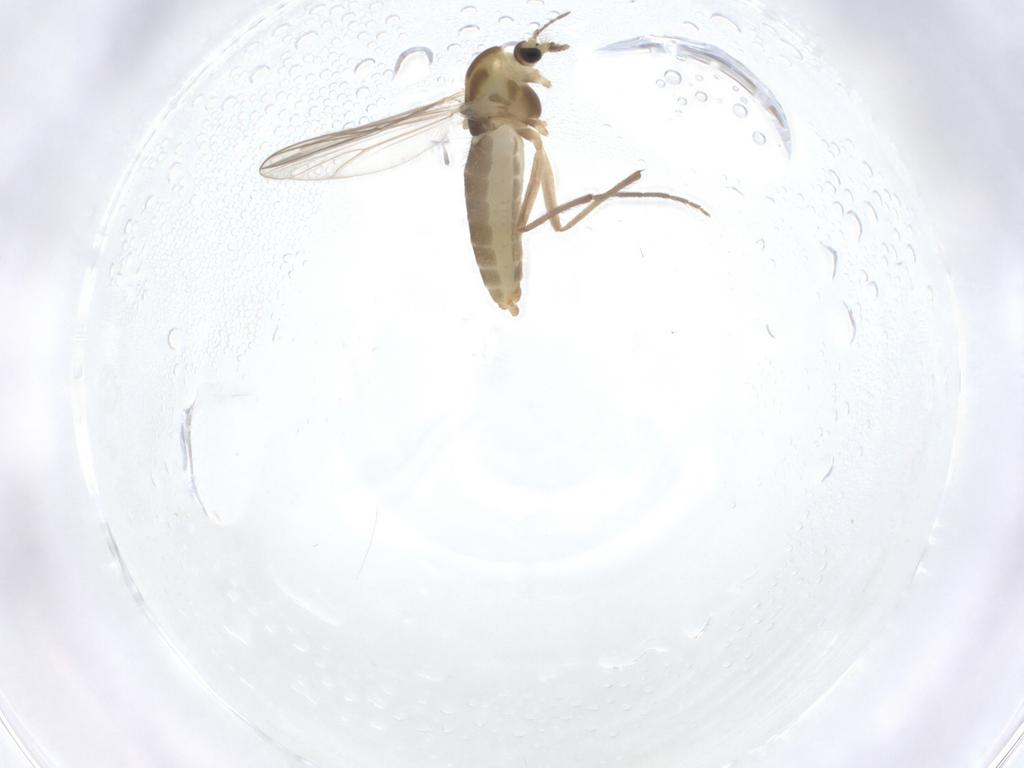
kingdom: Animalia
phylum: Arthropoda
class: Insecta
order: Diptera
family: Chironomidae
